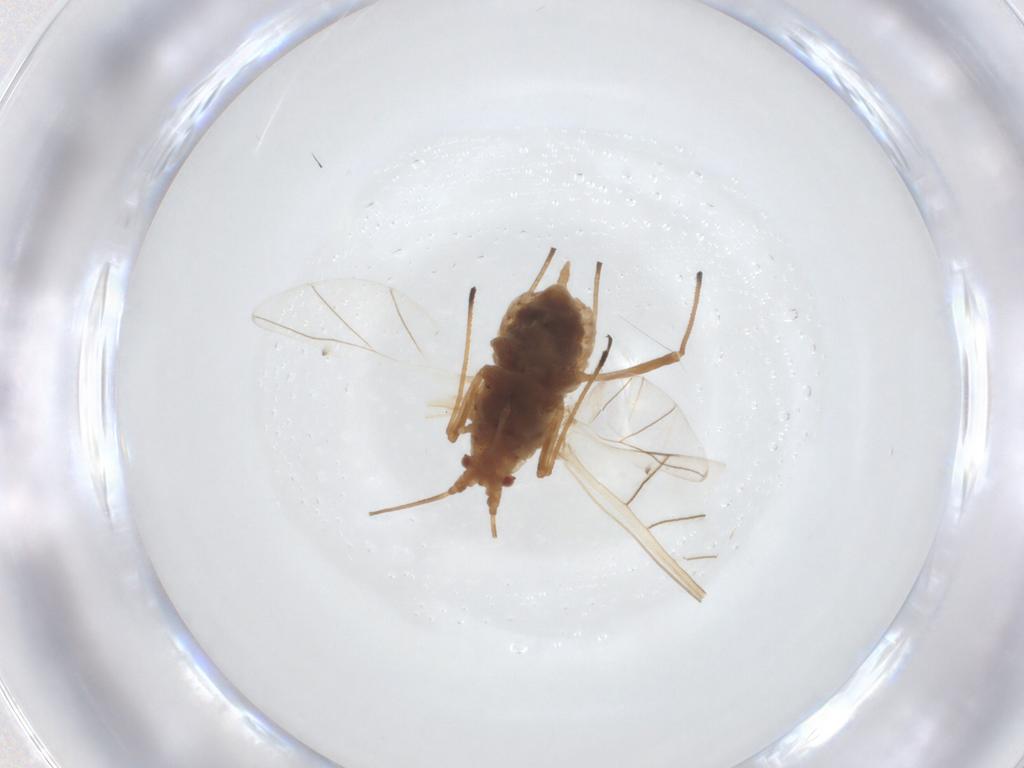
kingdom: Animalia
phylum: Arthropoda
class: Insecta
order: Hemiptera
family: Aphididae
